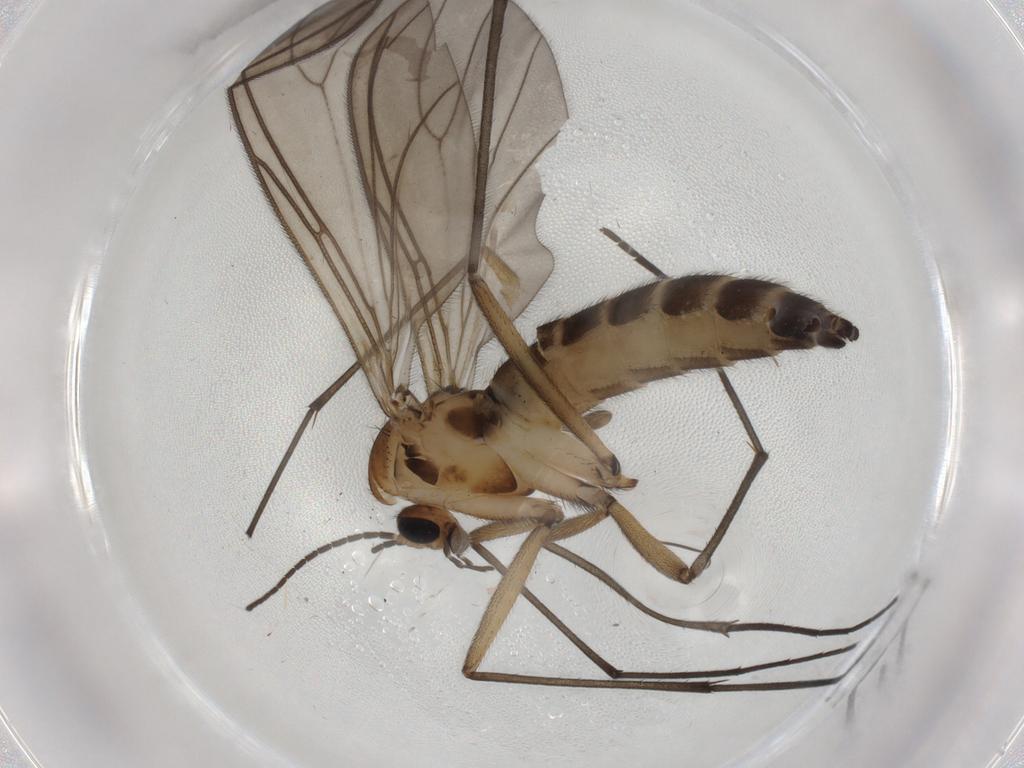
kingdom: Animalia
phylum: Arthropoda
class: Insecta
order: Diptera
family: Sciaridae
